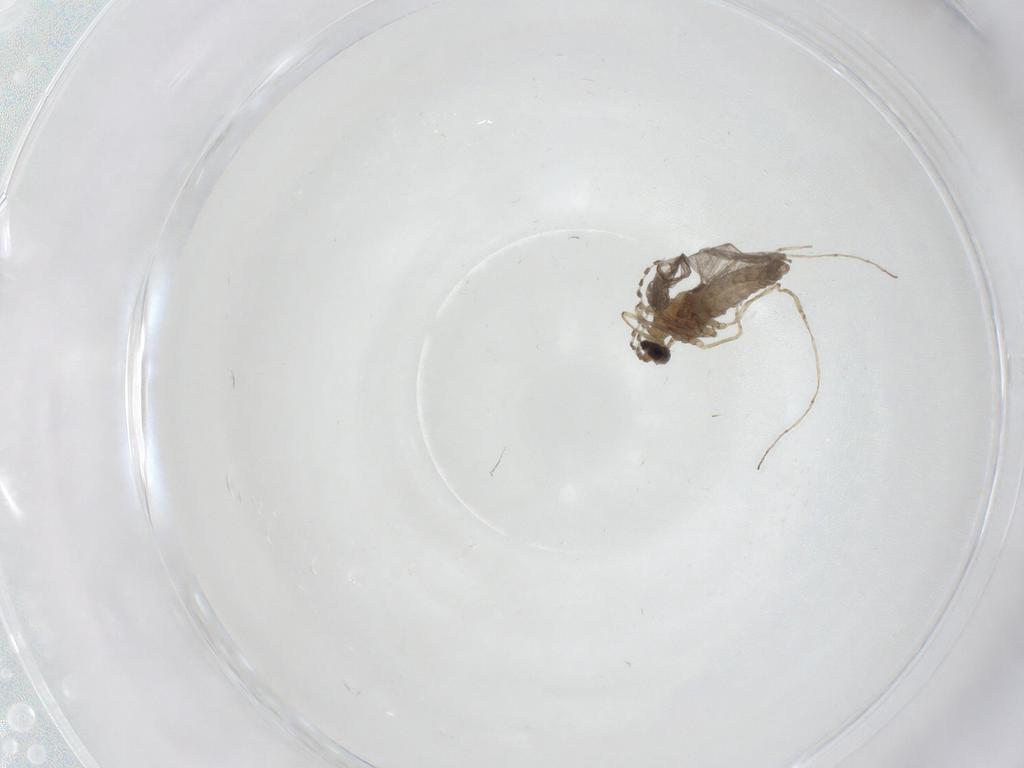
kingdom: Animalia
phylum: Arthropoda
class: Insecta
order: Diptera
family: Cecidomyiidae
